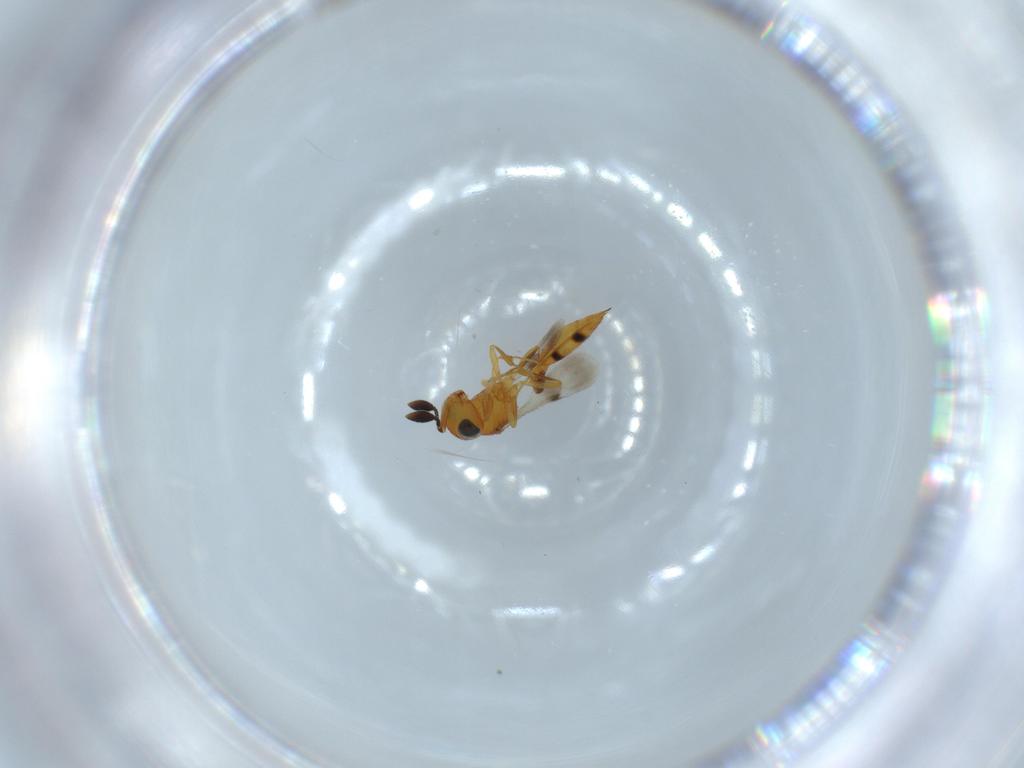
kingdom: Animalia
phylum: Arthropoda
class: Insecta
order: Hymenoptera
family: Scelionidae
